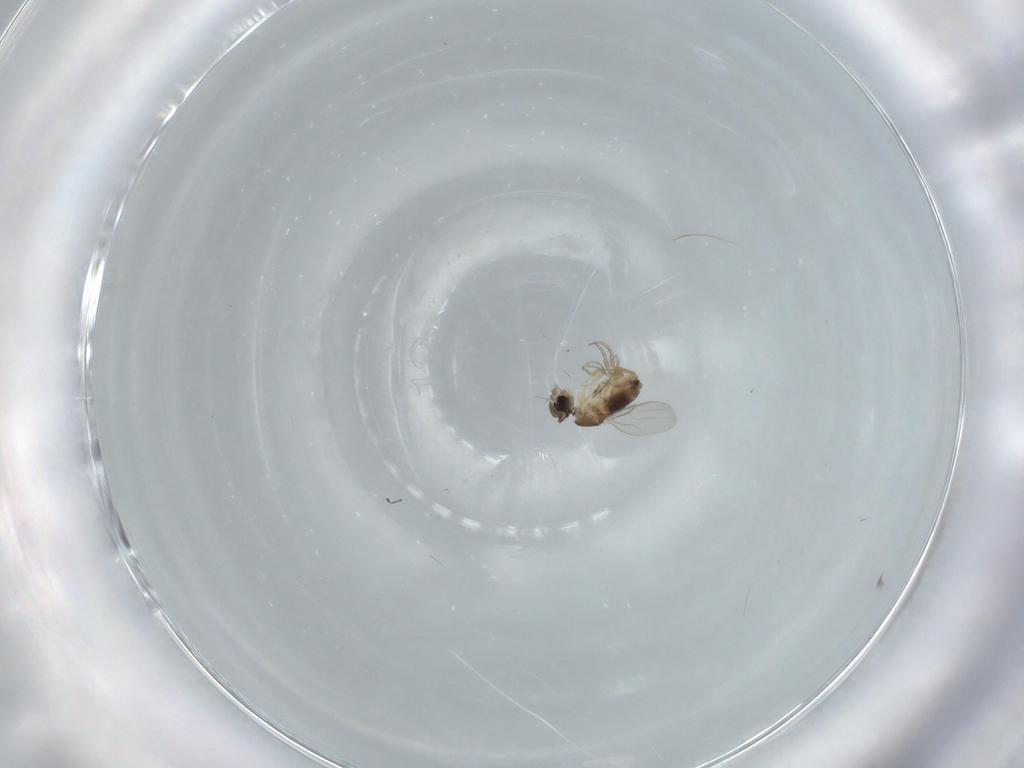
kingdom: Animalia
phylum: Arthropoda
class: Insecta
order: Diptera
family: Phoridae
